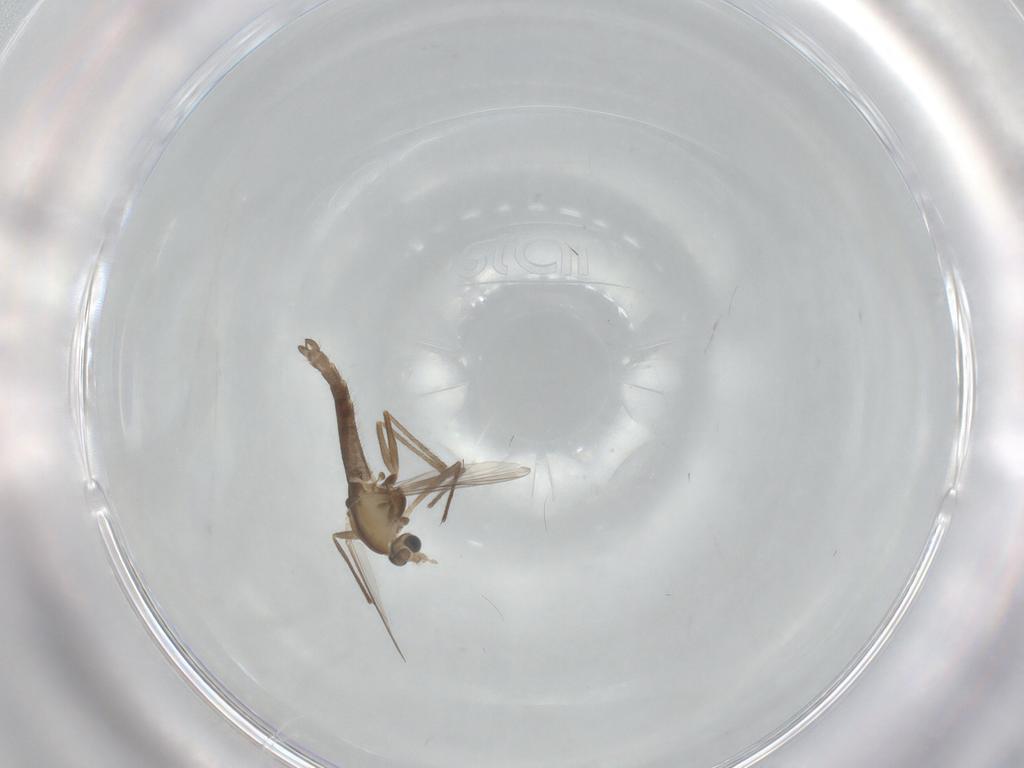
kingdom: Animalia
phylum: Arthropoda
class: Insecta
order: Diptera
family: Chironomidae
